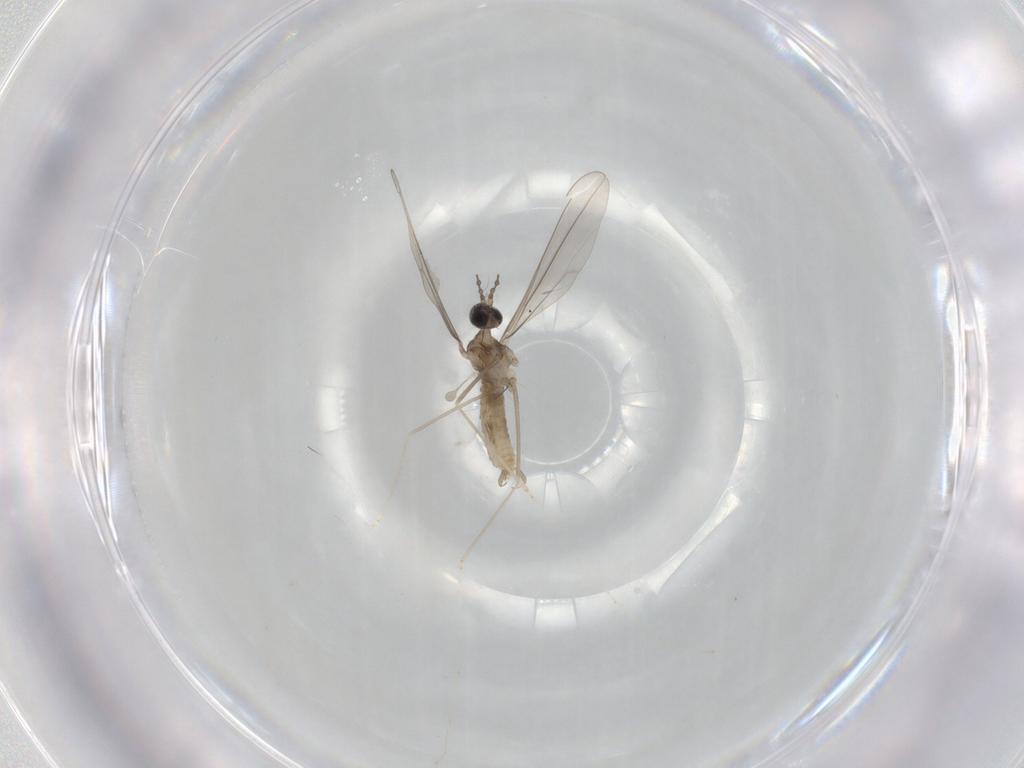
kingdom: Animalia
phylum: Arthropoda
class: Insecta
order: Diptera
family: Cecidomyiidae
